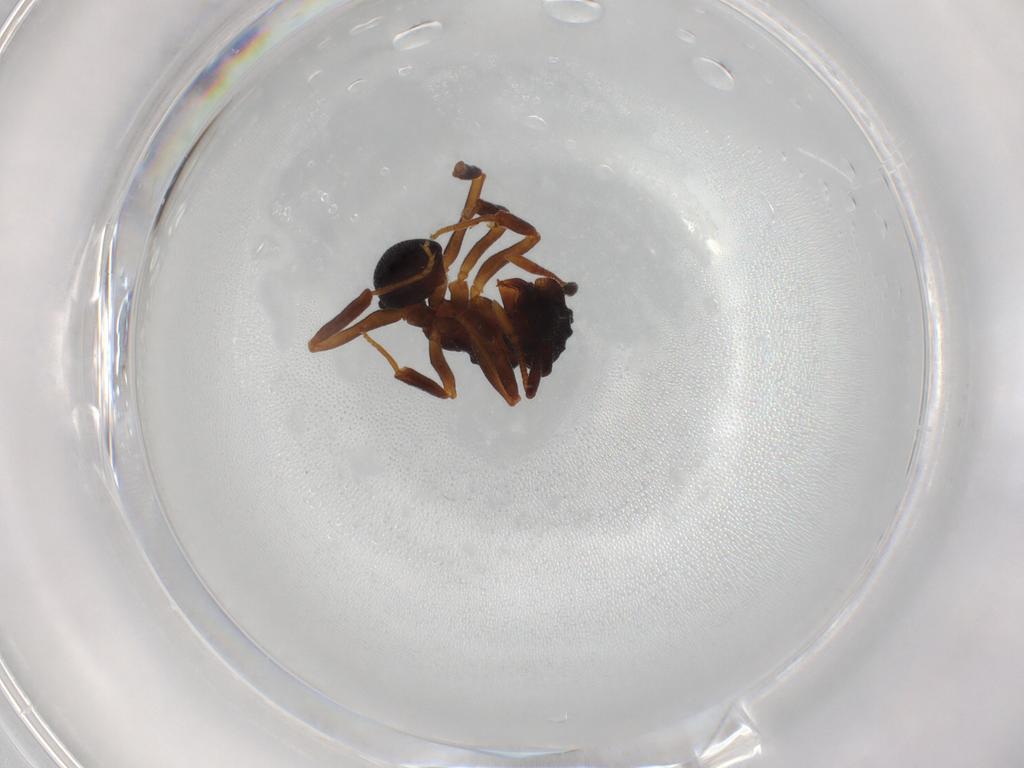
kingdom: Animalia
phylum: Arthropoda
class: Insecta
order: Hymenoptera
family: Formicidae
